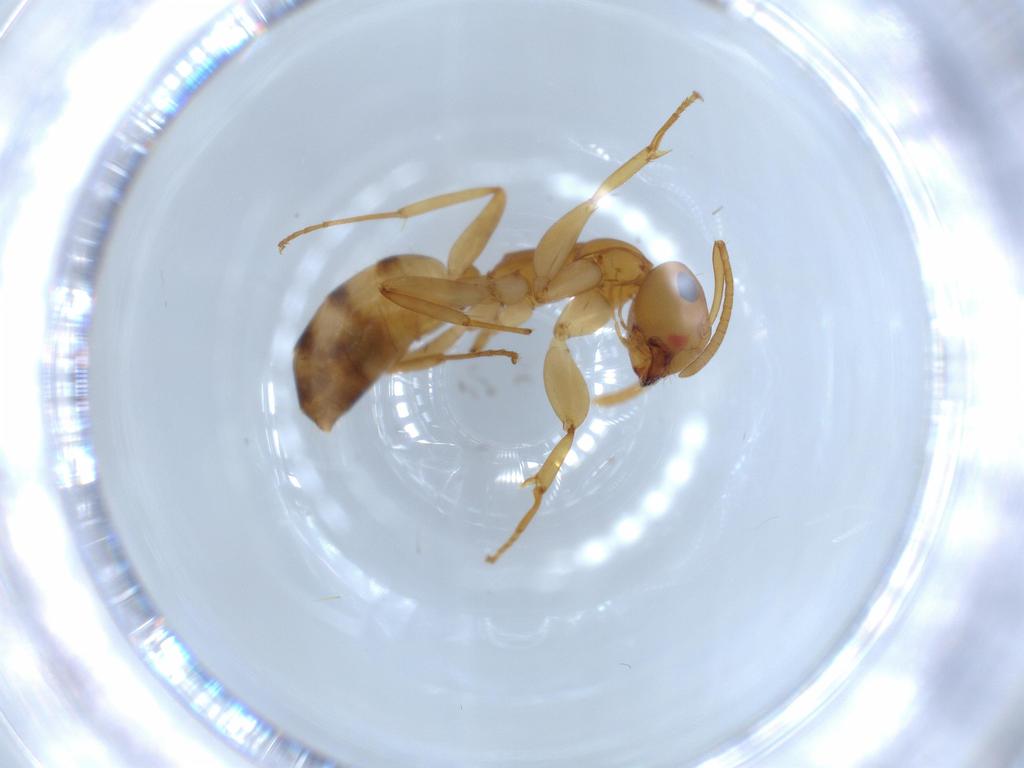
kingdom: Animalia
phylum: Arthropoda
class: Insecta
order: Hymenoptera
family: Formicidae
